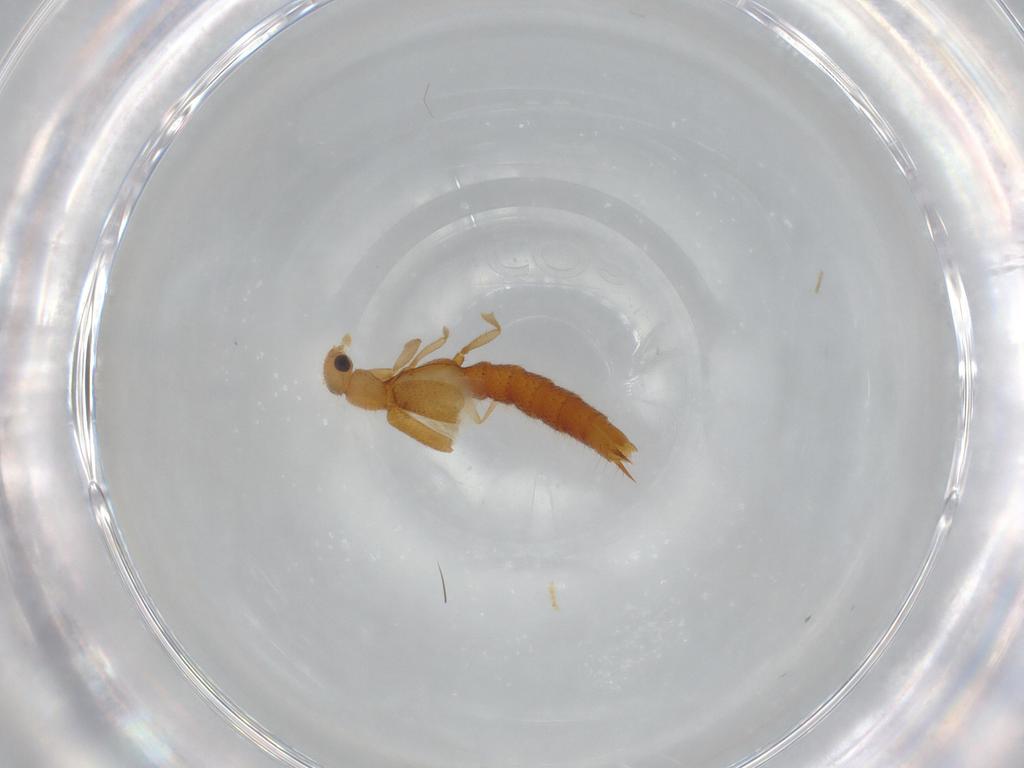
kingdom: Animalia
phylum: Arthropoda
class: Insecta
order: Coleoptera
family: Staphylinidae
